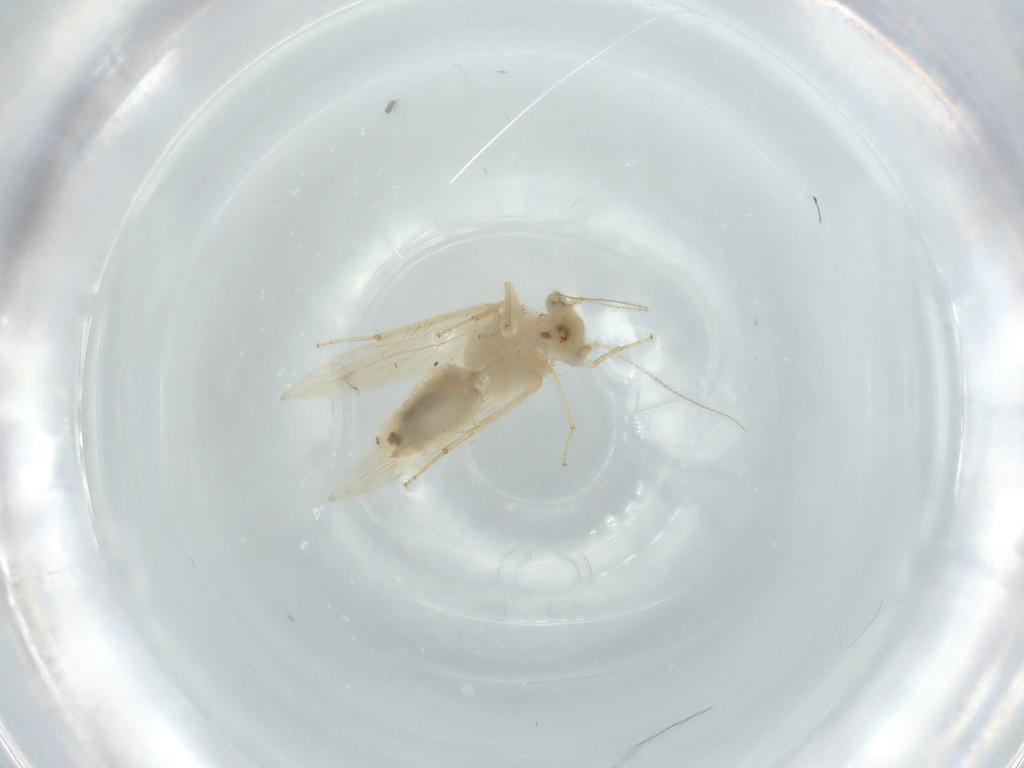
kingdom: Animalia
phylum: Arthropoda
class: Insecta
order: Psocodea
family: Lepidopsocidae
